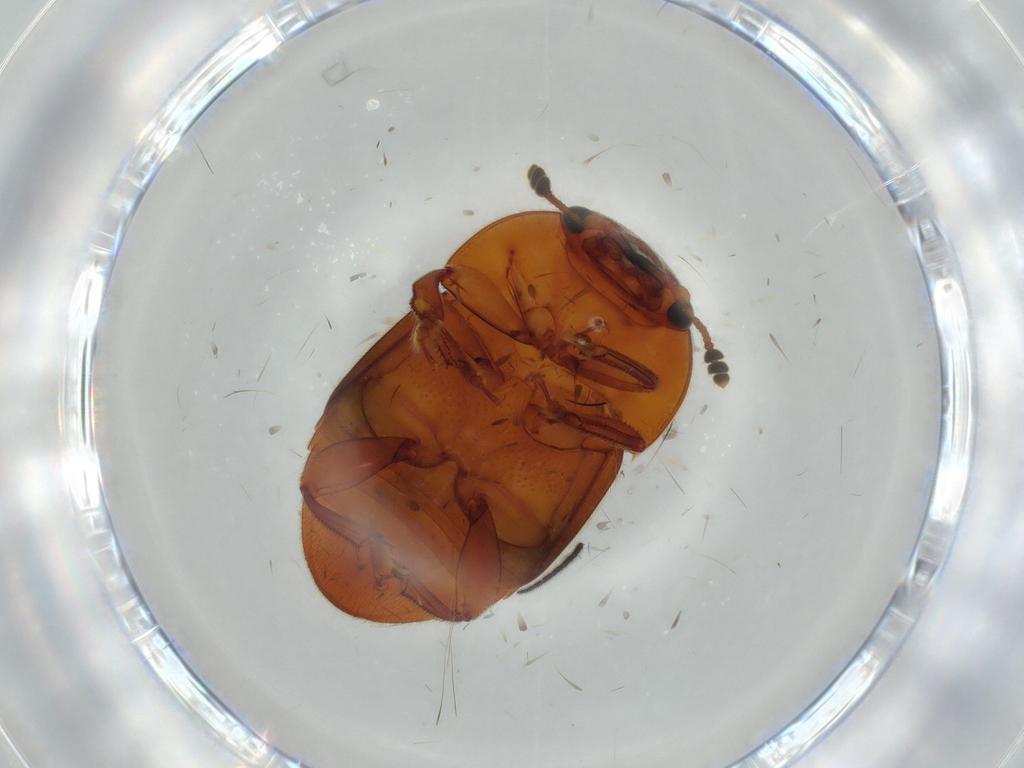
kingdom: Animalia
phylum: Arthropoda
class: Insecta
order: Coleoptera
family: Nitidulidae
